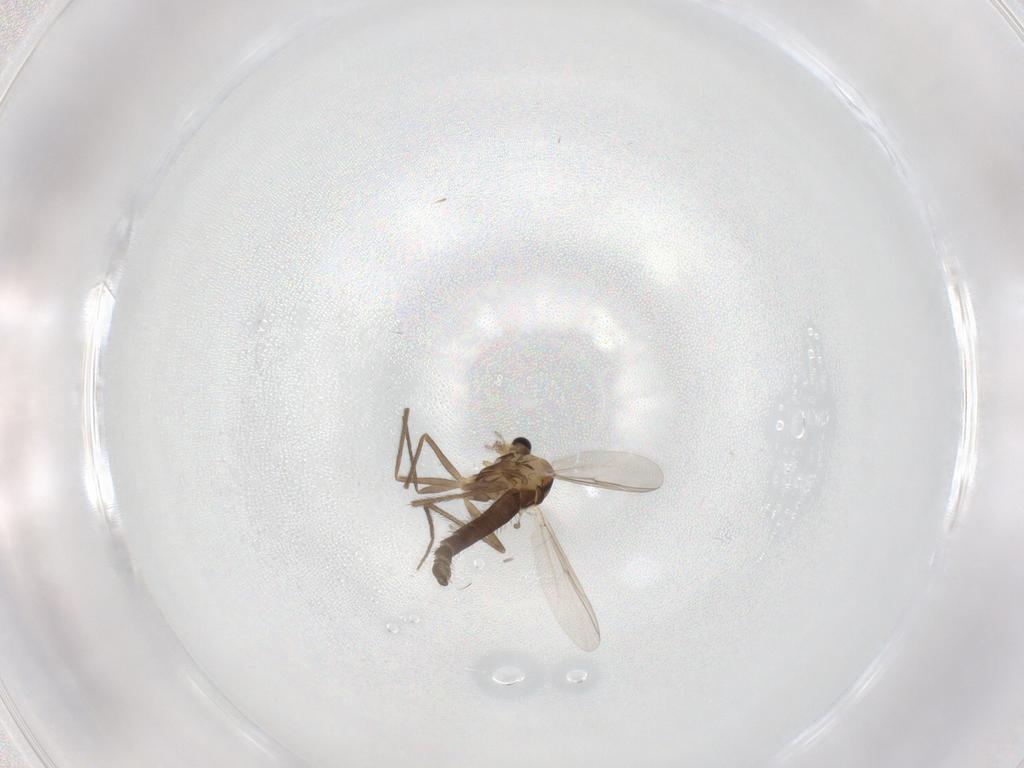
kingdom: Animalia
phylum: Arthropoda
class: Insecta
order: Diptera
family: Chironomidae
